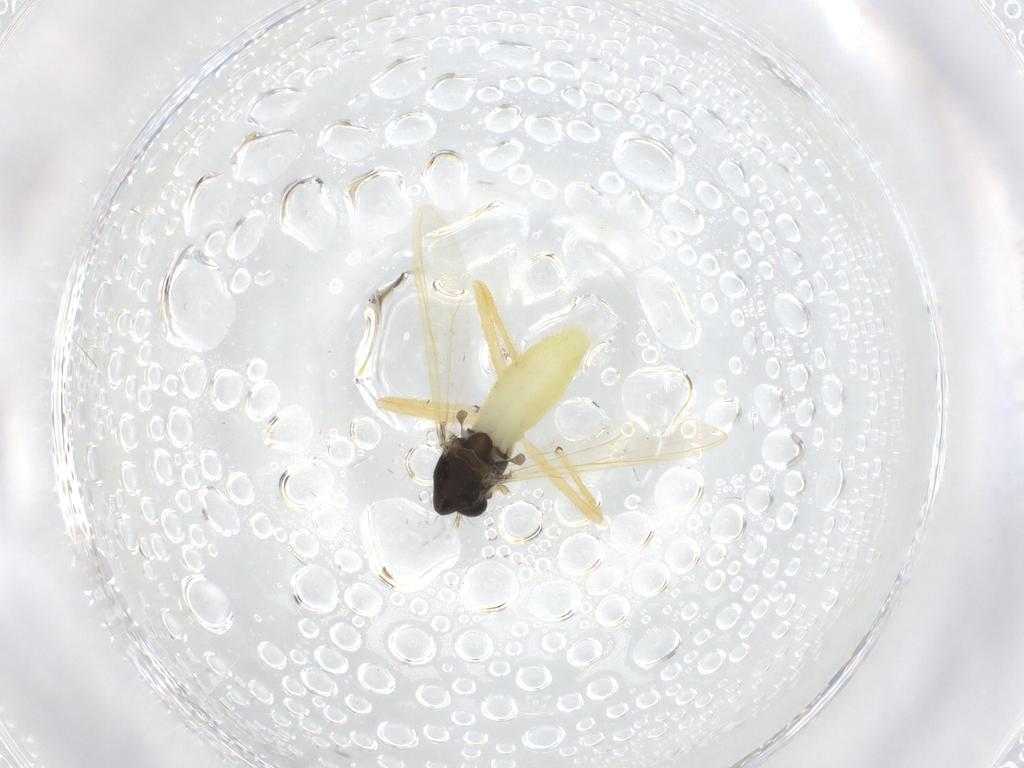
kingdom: Animalia
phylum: Arthropoda
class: Insecta
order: Diptera
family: Chironomidae
